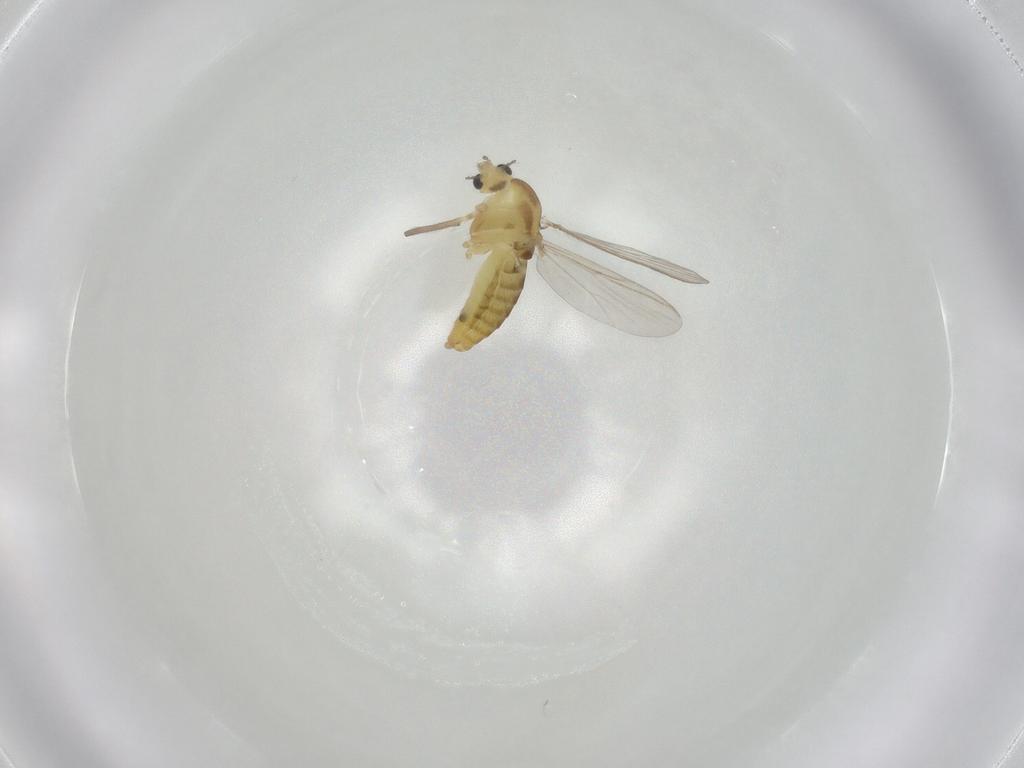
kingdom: Animalia
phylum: Arthropoda
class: Insecta
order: Diptera
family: Chironomidae
